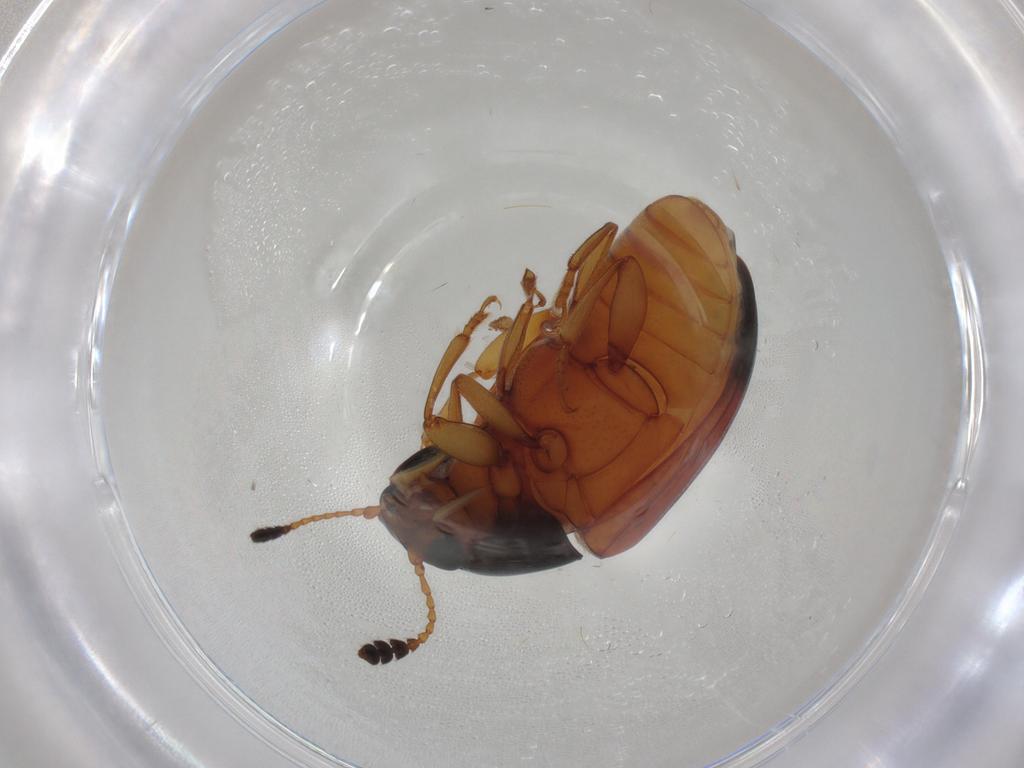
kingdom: Animalia
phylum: Arthropoda
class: Insecta
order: Coleoptera
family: Erotylidae
